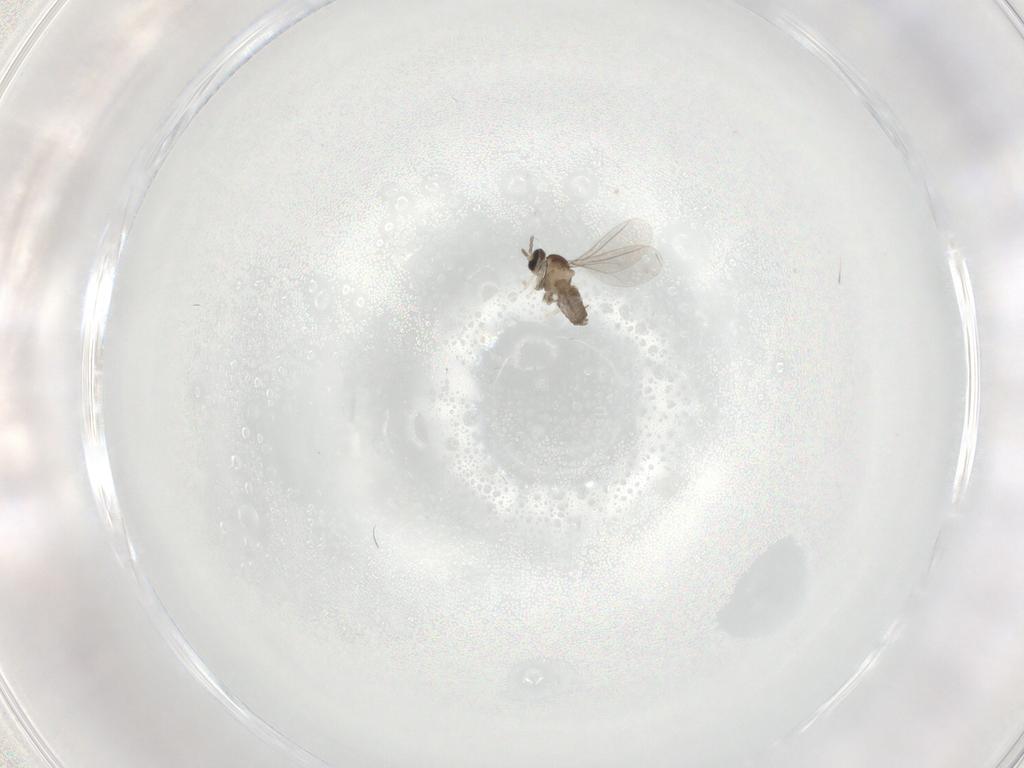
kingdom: Animalia
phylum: Arthropoda
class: Insecta
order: Diptera
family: Cecidomyiidae
